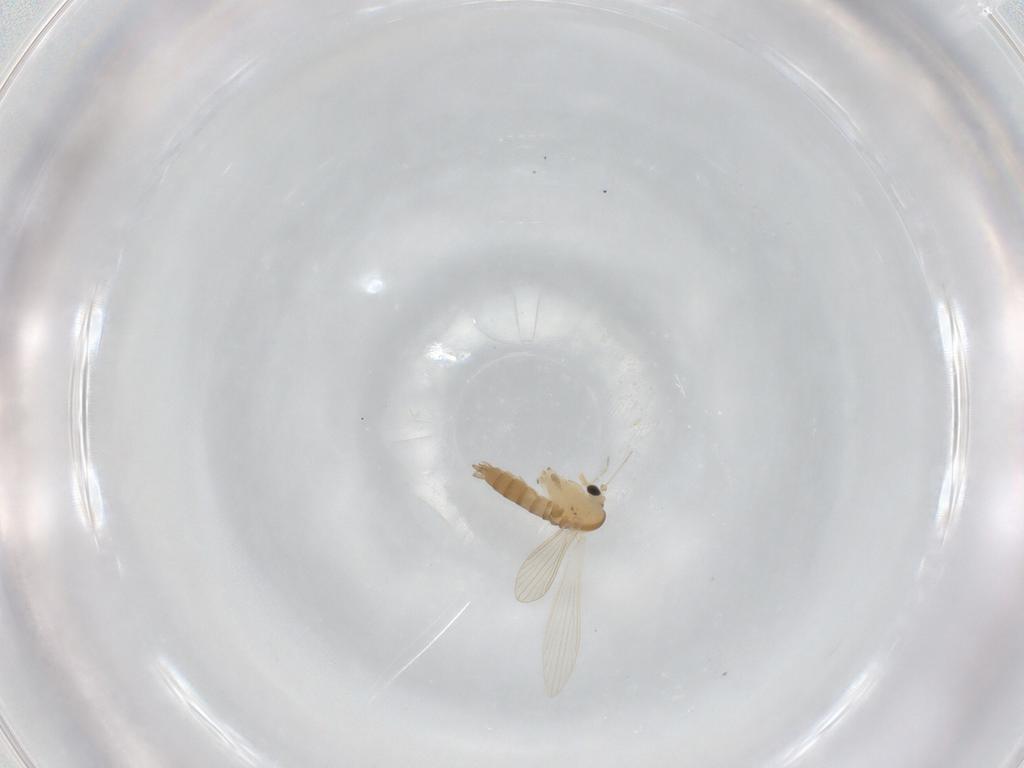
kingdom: Animalia
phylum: Arthropoda
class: Insecta
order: Diptera
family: Psychodidae
